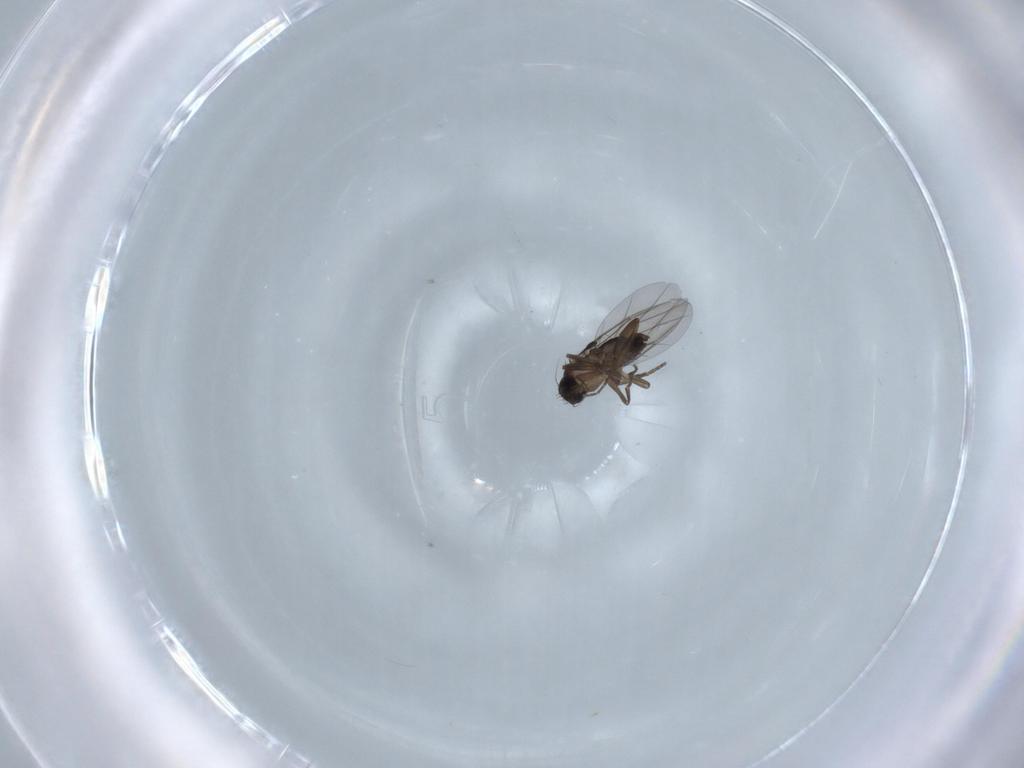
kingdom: Animalia
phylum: Arthropoda
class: Insecta
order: Diptera
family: Phoridae
